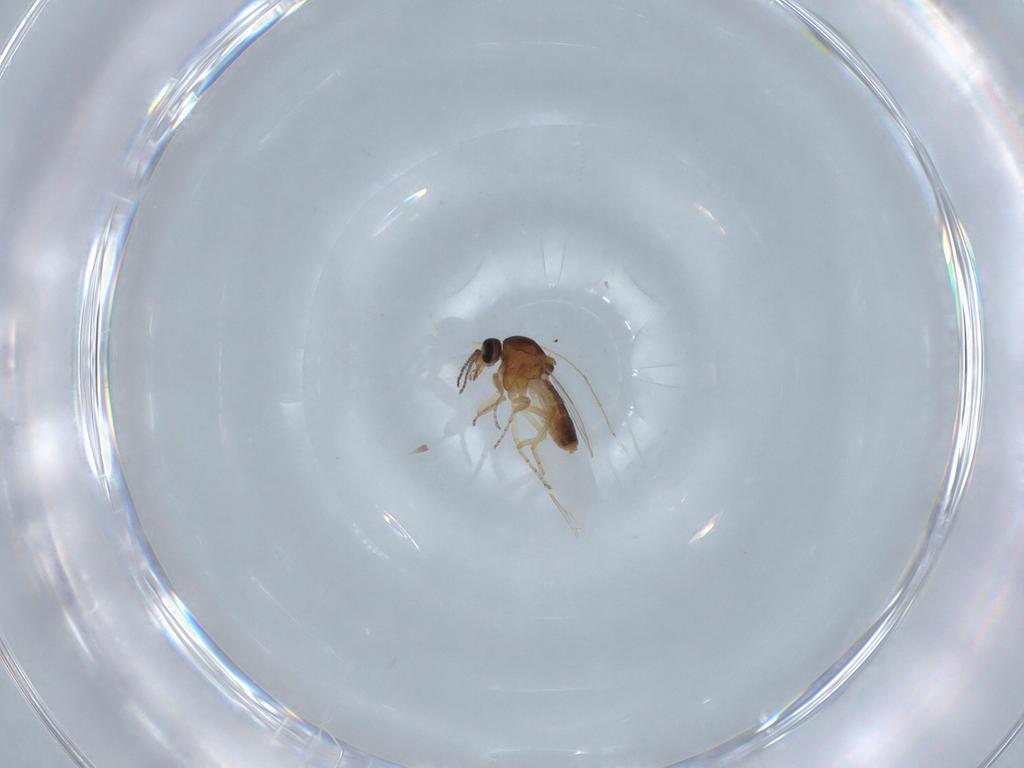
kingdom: Animalia
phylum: Arthropoda
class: Insecta
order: Diptera
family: Ceratopogonidae
